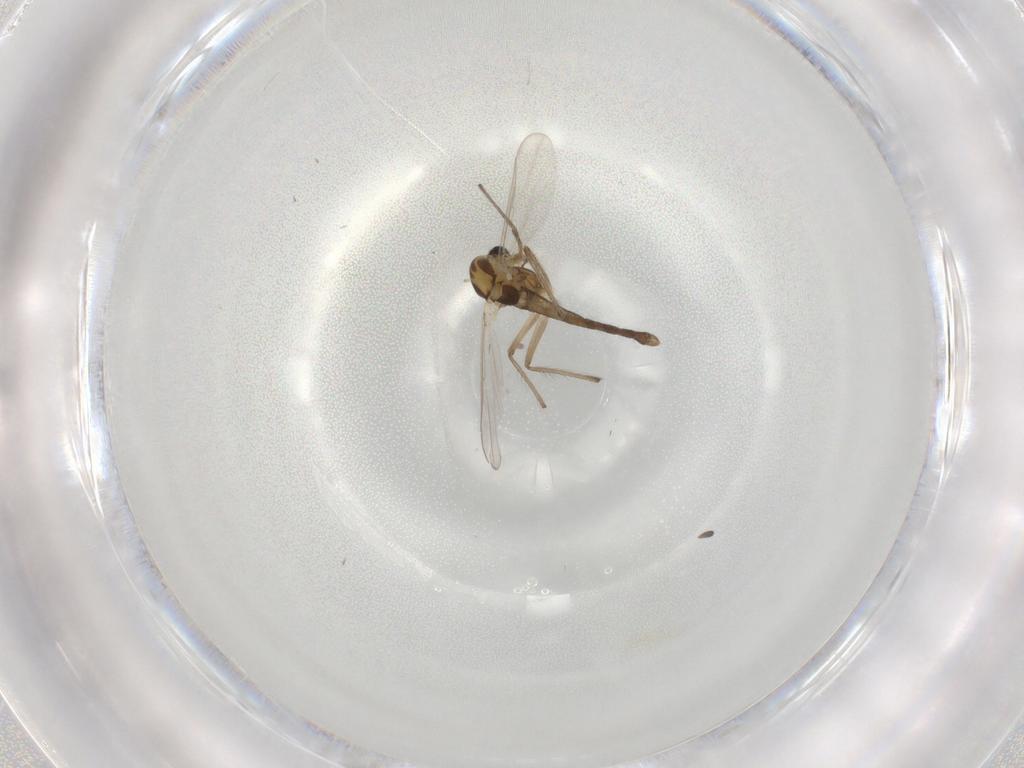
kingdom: Animalia
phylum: Arthropoda
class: Insecta
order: Diptera
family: Chironomidae
